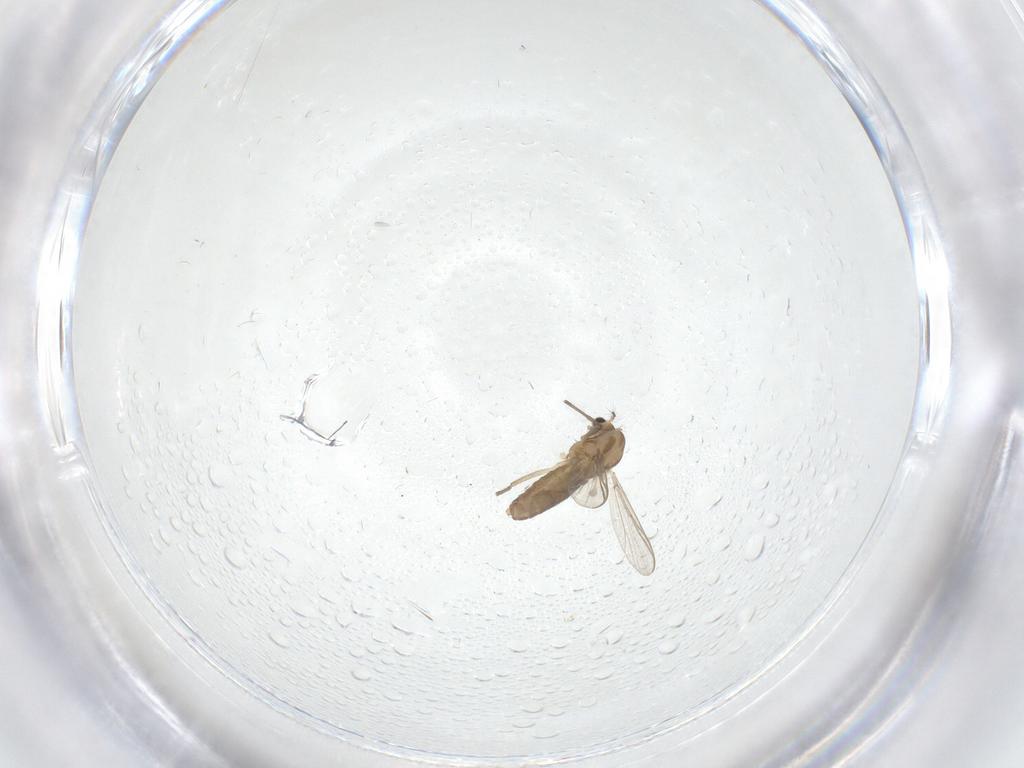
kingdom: Animalia
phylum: Arthropoda
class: Insecta
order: Diptera
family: Chironomidae
